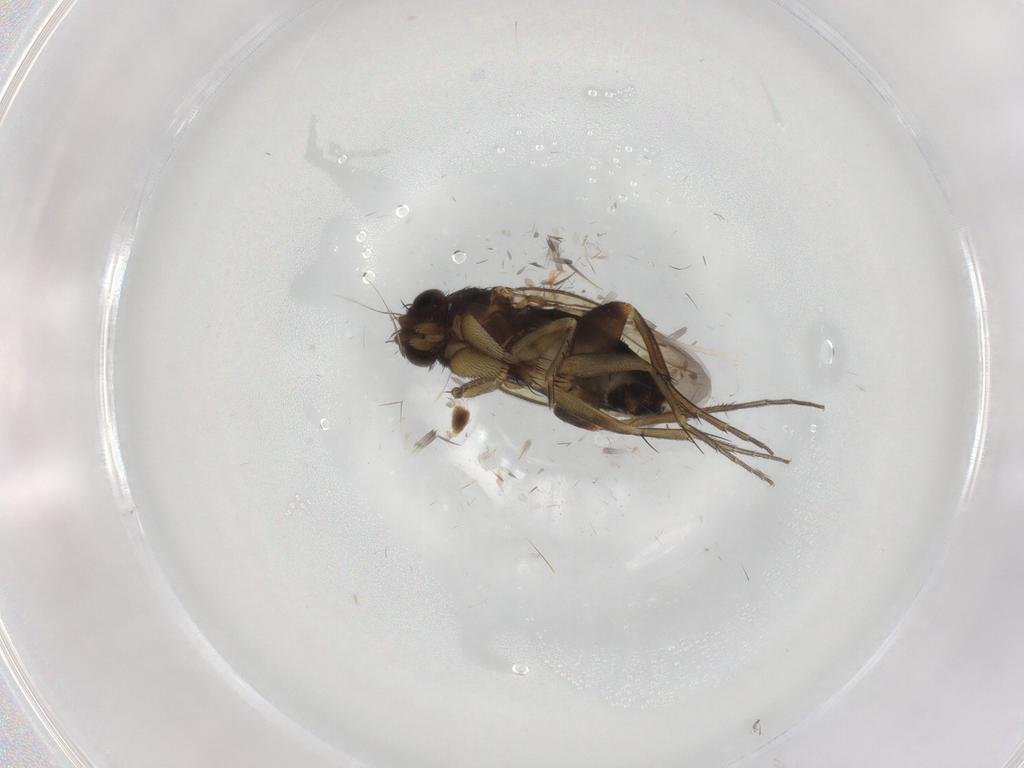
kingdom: Animalia
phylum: Arthropoda
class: Insecta
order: Diptera
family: Phoridae
